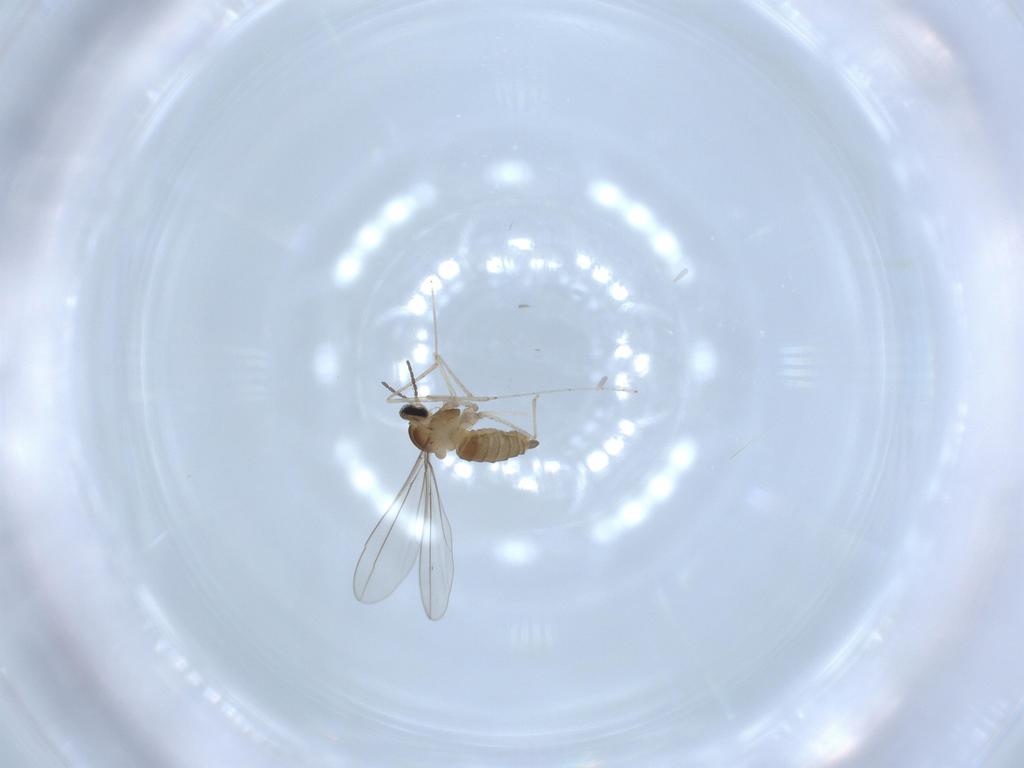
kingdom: Animalia
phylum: Arthropoda
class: Insecta
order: Diptera
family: Cecidomyiidae
